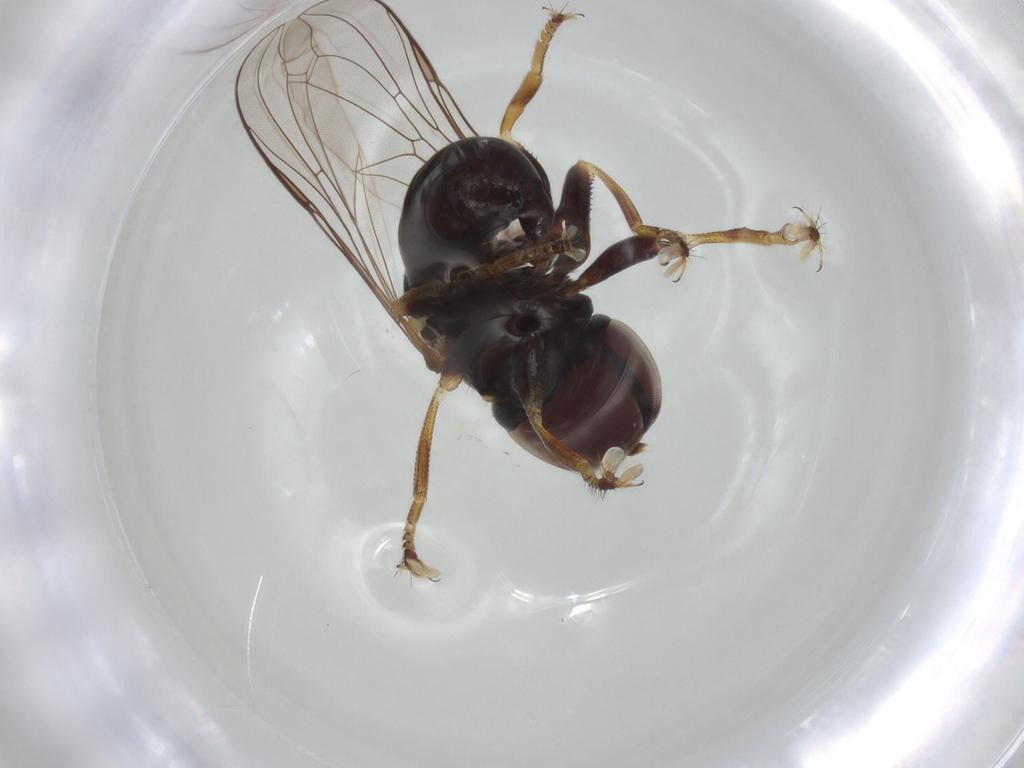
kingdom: Animalia
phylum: Arthropoda
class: Insecta
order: Diptera
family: Pipunculidae
